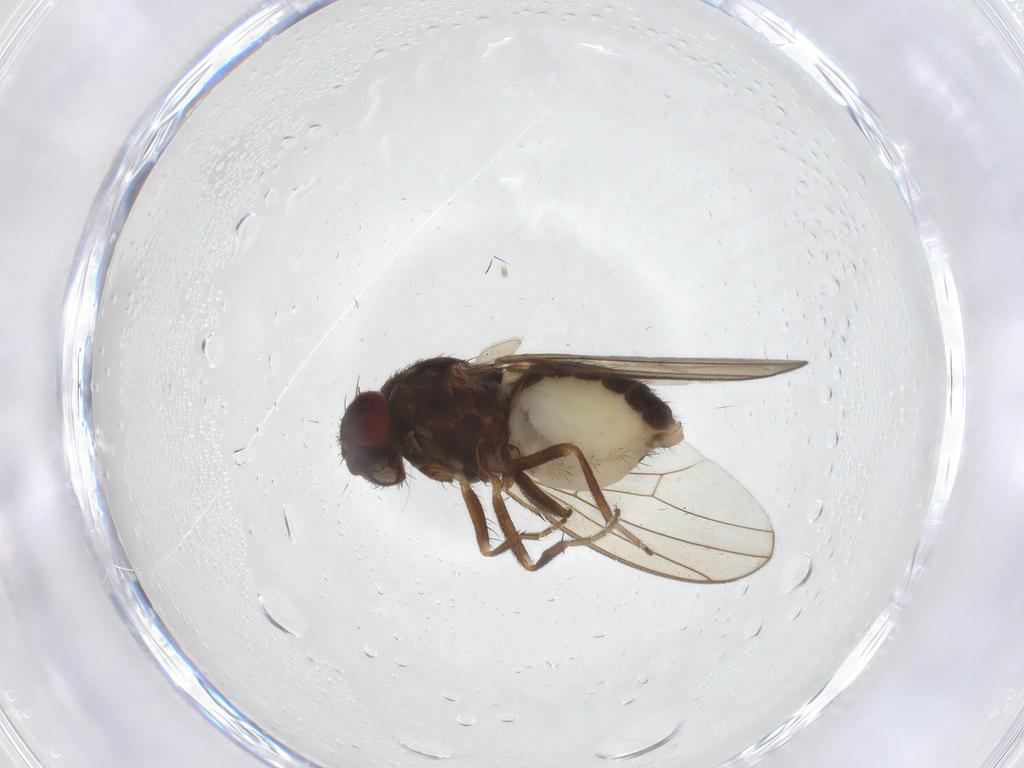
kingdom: Animalia
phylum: Arthropoda
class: Insecta
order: Diptera
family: Drosophilidae
